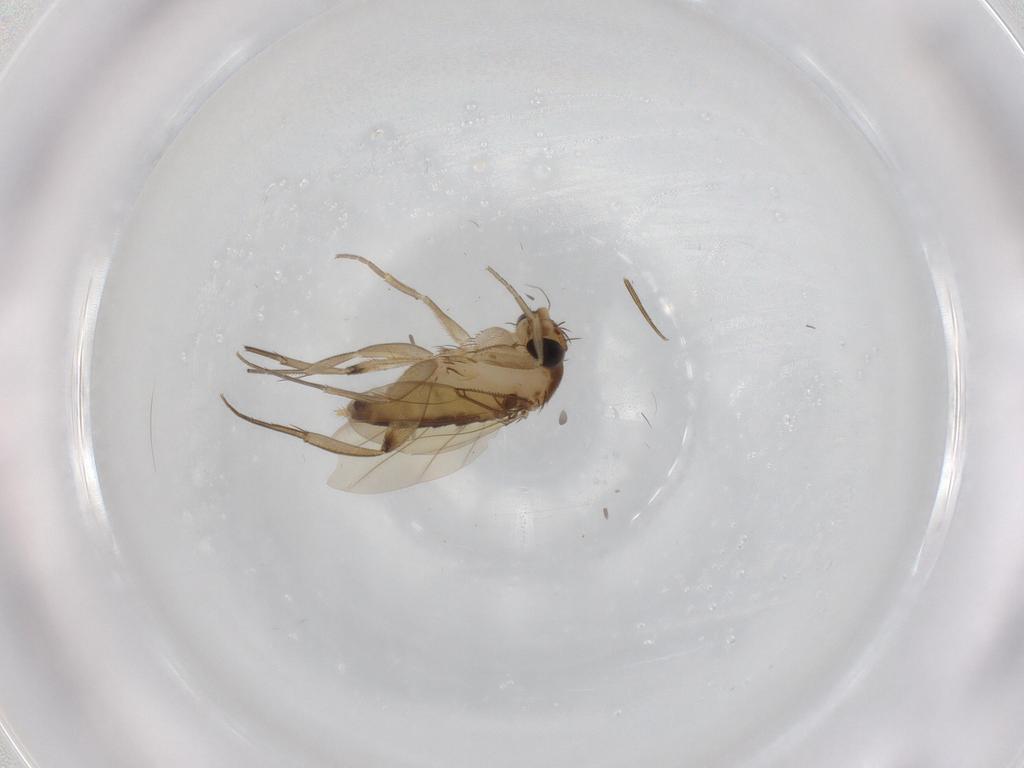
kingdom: Animalia
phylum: Arthropoda
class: Insecta
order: Diptera
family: Phoridae
